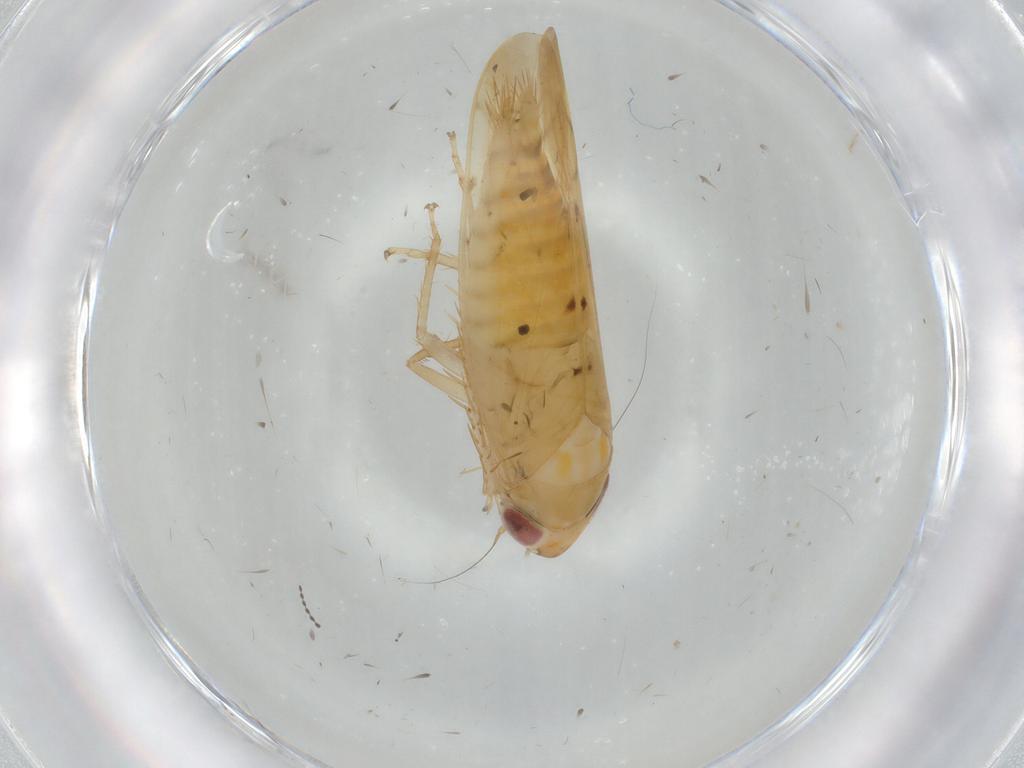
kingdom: Animalia
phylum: Arthropoda
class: Insecta
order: Hemiptera
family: Cicadellidae
